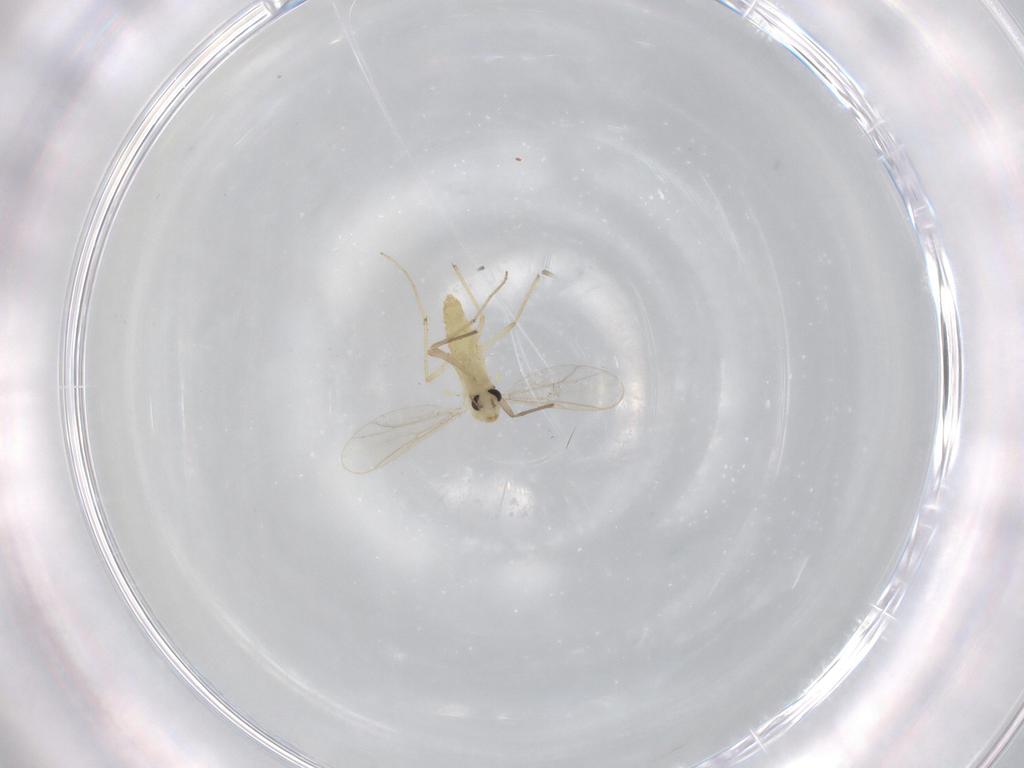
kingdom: Animalia
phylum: Arthropoda
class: Insecta
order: Diptera
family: Chironomidae
